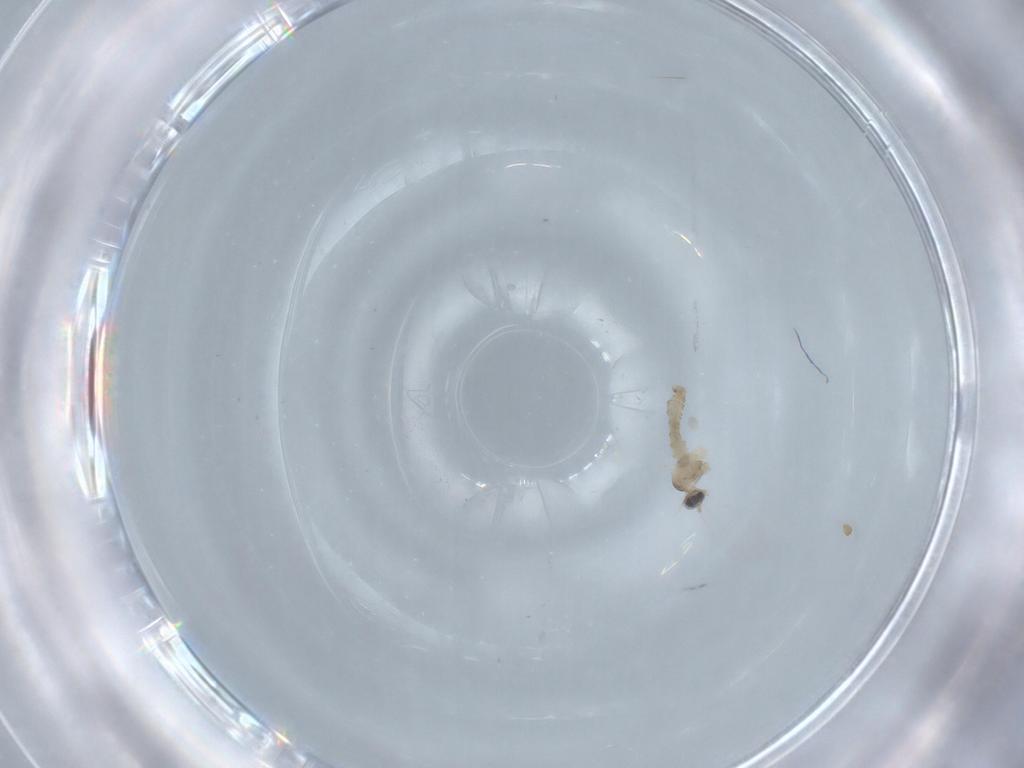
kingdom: Animalia
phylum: Arthropoda
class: Insecta
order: Diptera
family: Psychodidae
